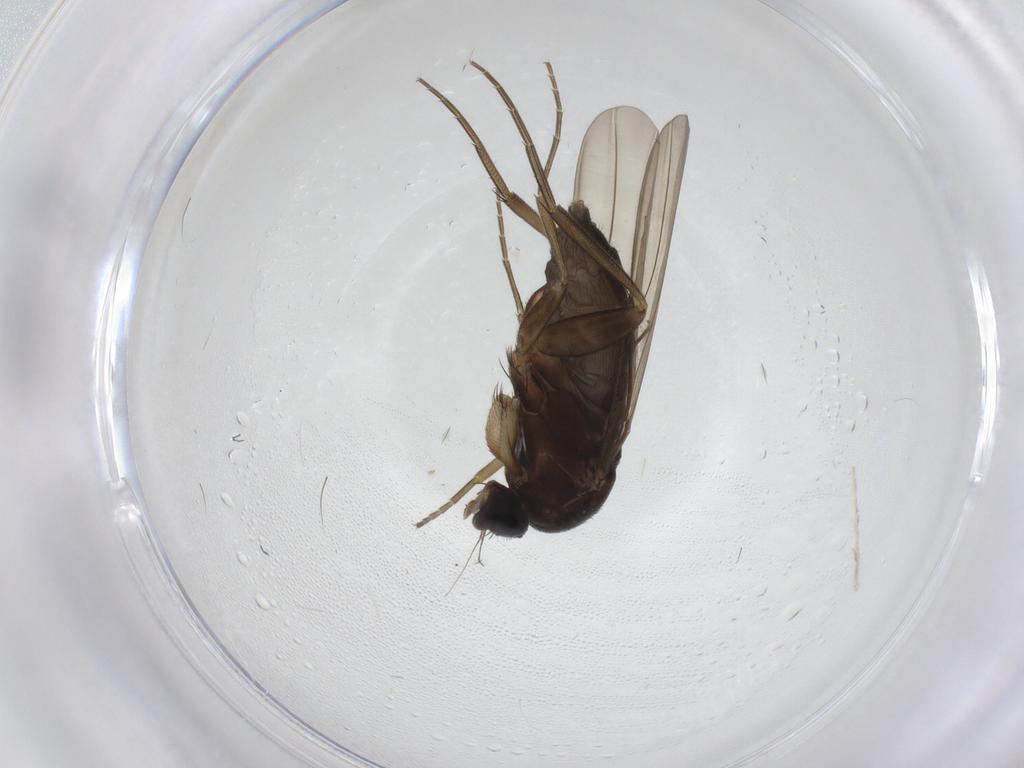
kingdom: Animalia
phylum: Arthropoda
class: Insecta
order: Diptera
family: Phoridae
